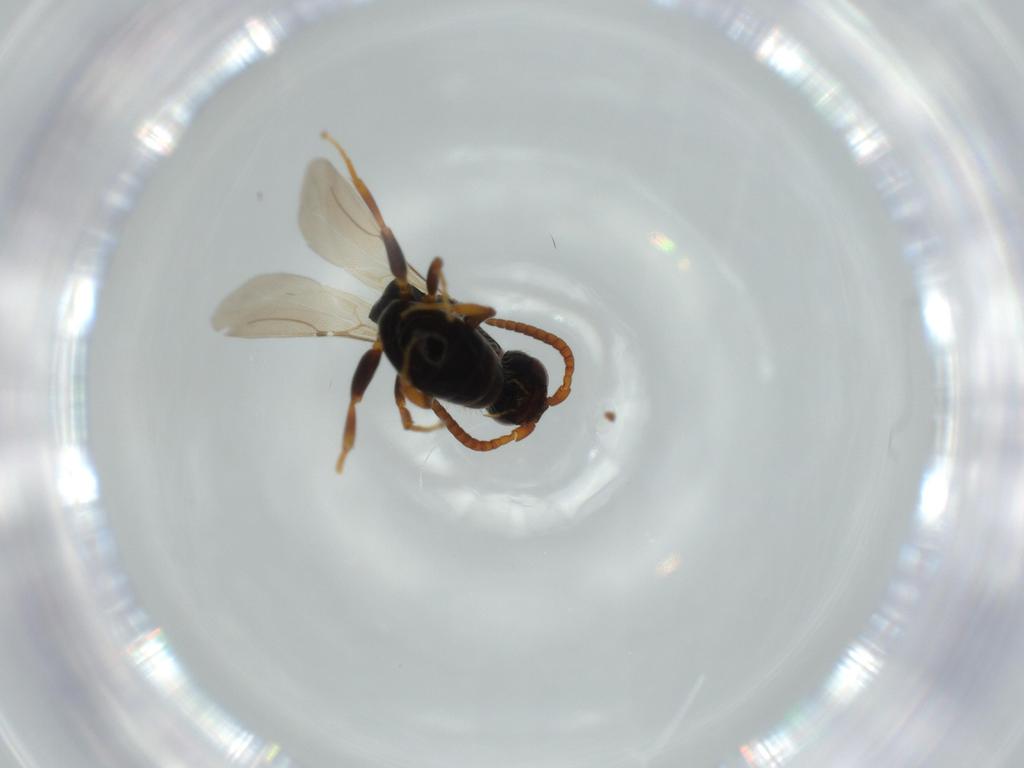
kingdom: Animalia
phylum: Arthropoda
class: Insecta
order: Hymenoptera
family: Bethylidae
